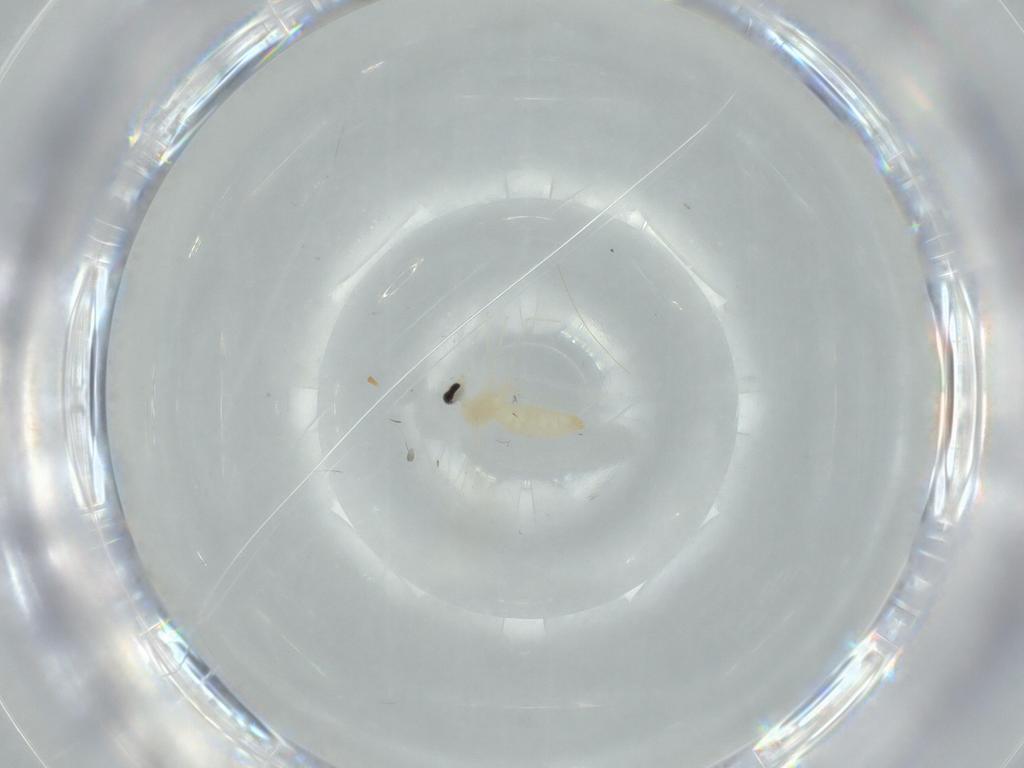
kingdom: Animalia
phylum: Arthropoda
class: Insecta
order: Diptera
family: Cecidomyiidae
